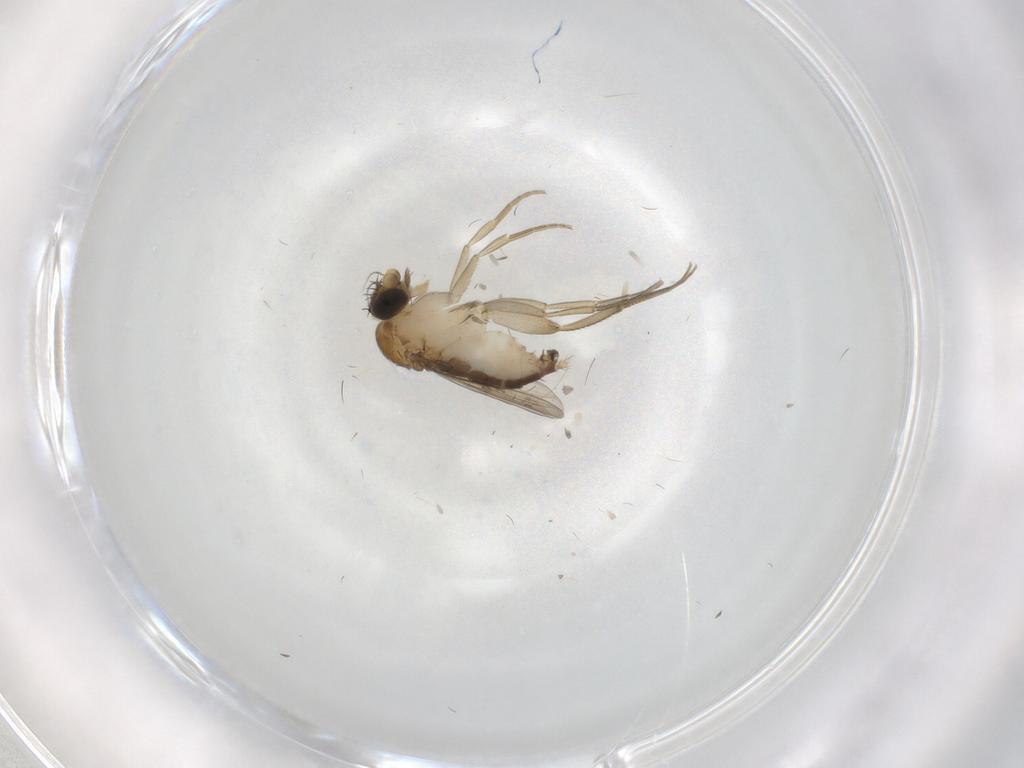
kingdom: Animalia
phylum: Arthropoda
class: Insecta
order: Diptera
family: Phoridae
